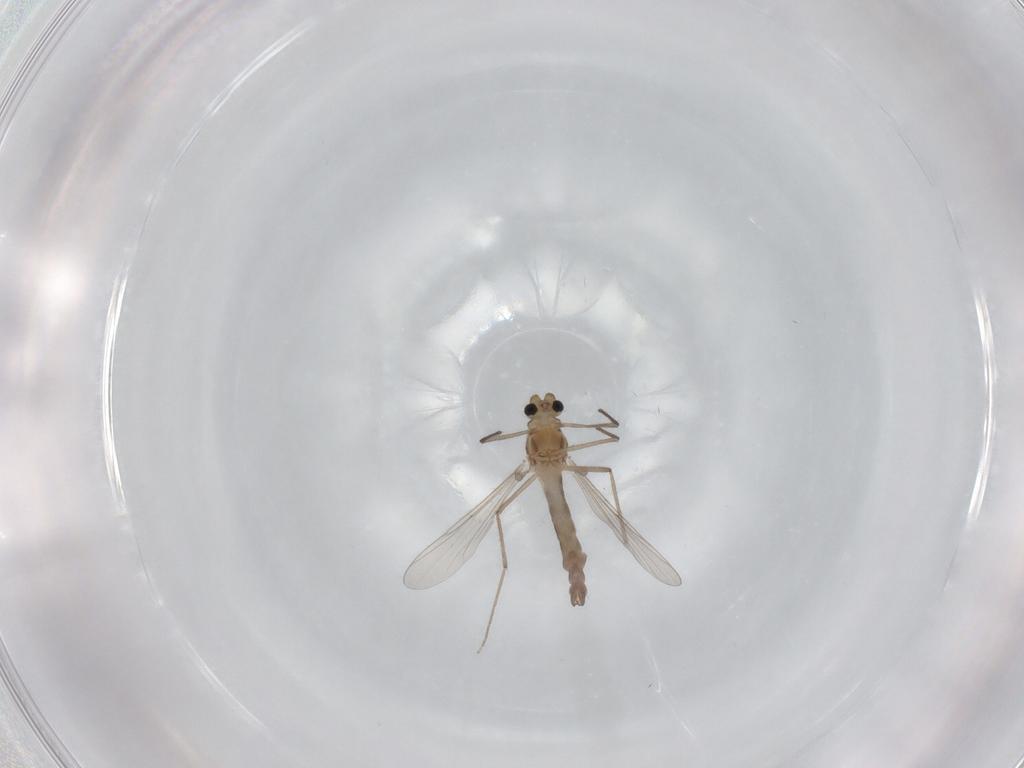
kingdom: Animalia
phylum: Arthropoda
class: Insecta
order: Diptera
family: Chironomidae
